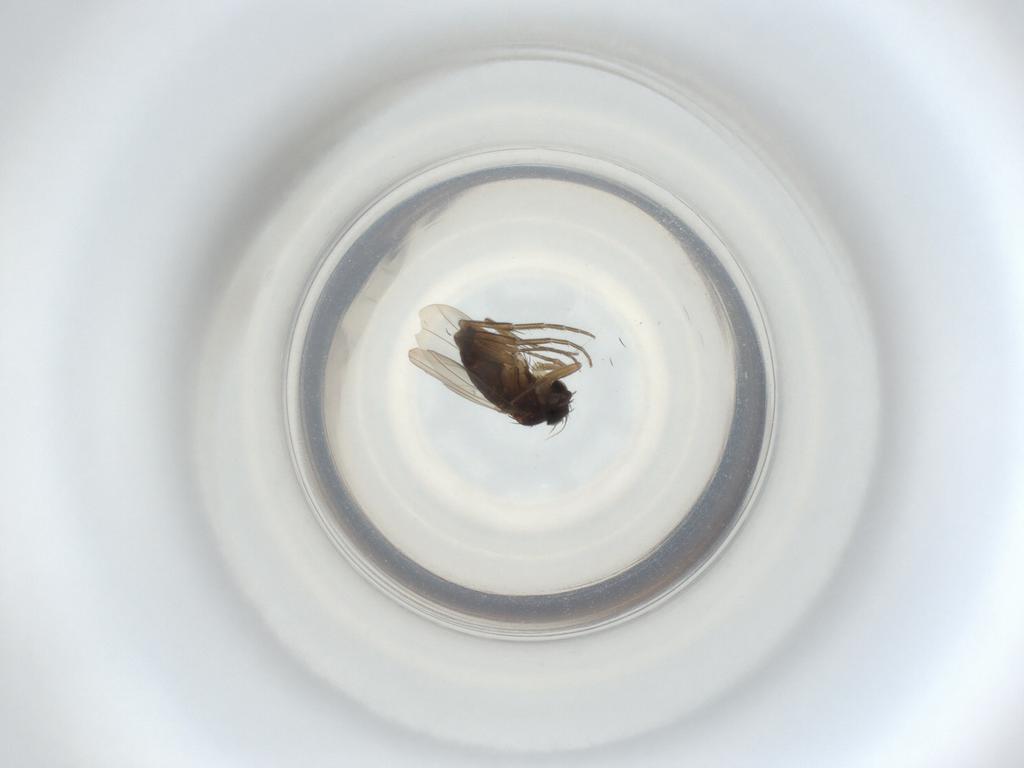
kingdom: Animalia
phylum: Arthropoda
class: Insecta
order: Diptera
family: Phoridae
